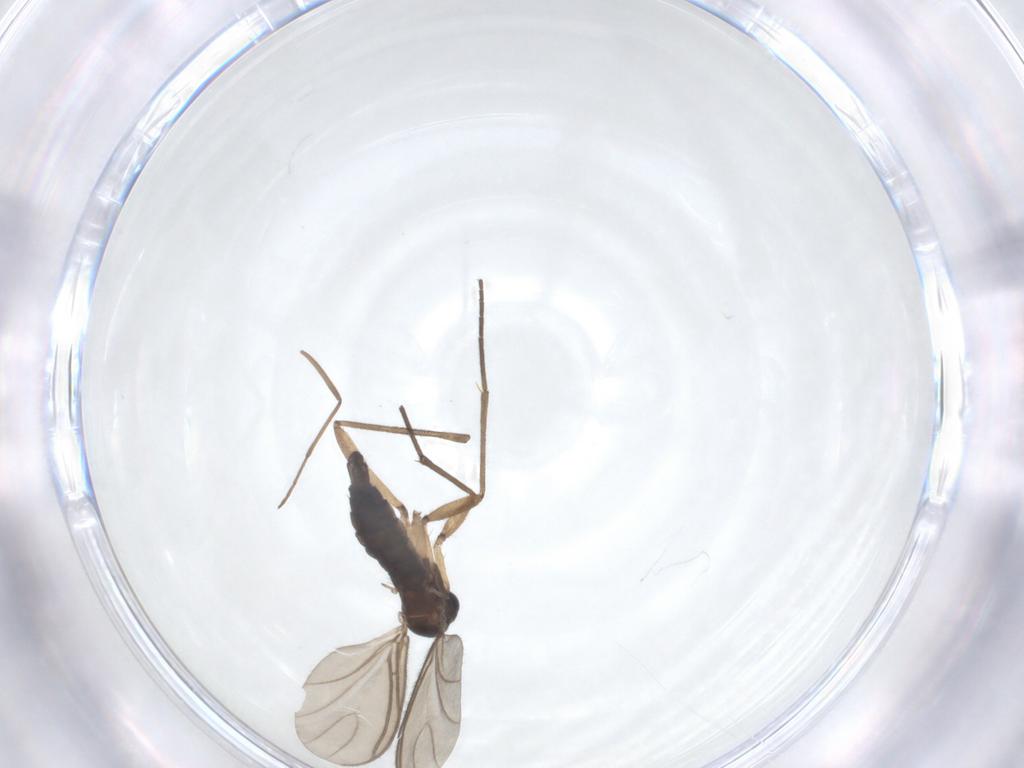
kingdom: Animalia
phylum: Arthropoda
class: Insecta
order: Diptera
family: Sciaridae
